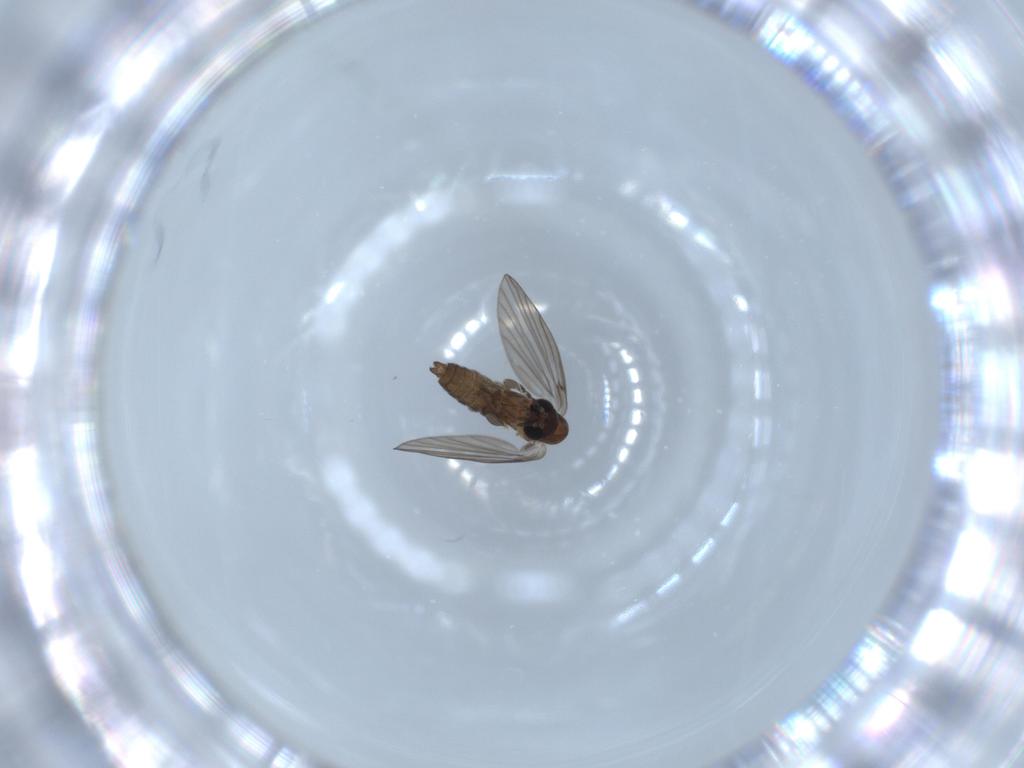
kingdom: Animalia
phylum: Arthropoda
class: Insecta
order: Diptera
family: Psychodidae
